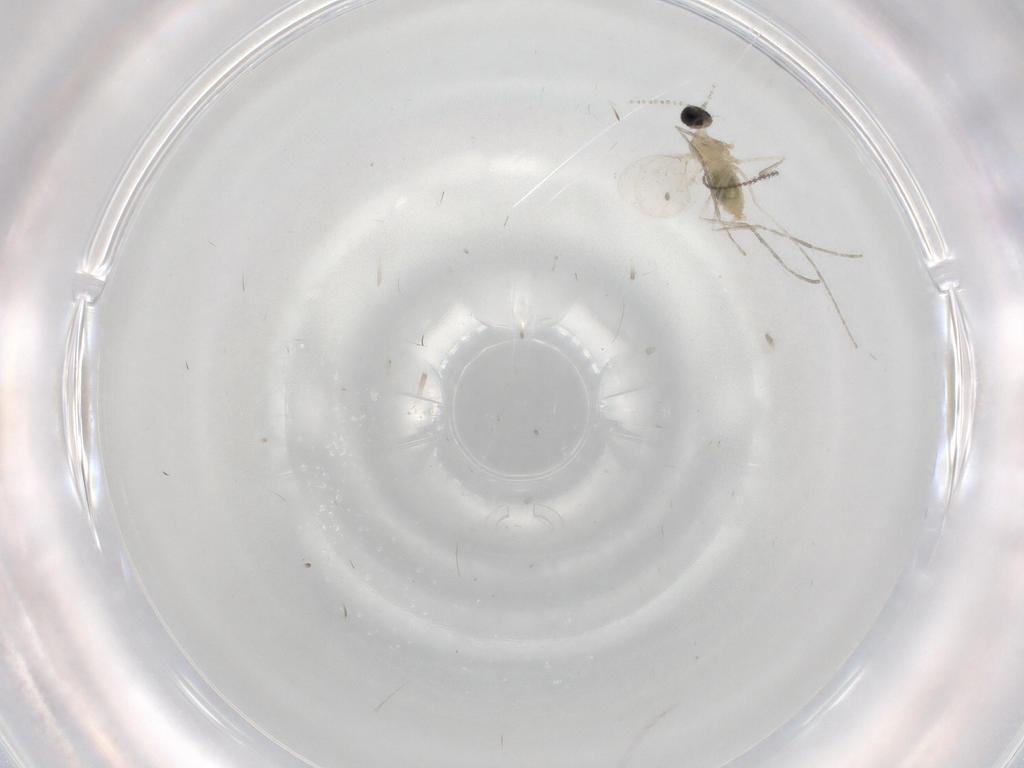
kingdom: Animalia
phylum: Arthropoda
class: Insecta
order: Diptera
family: Cecidomyiidae
